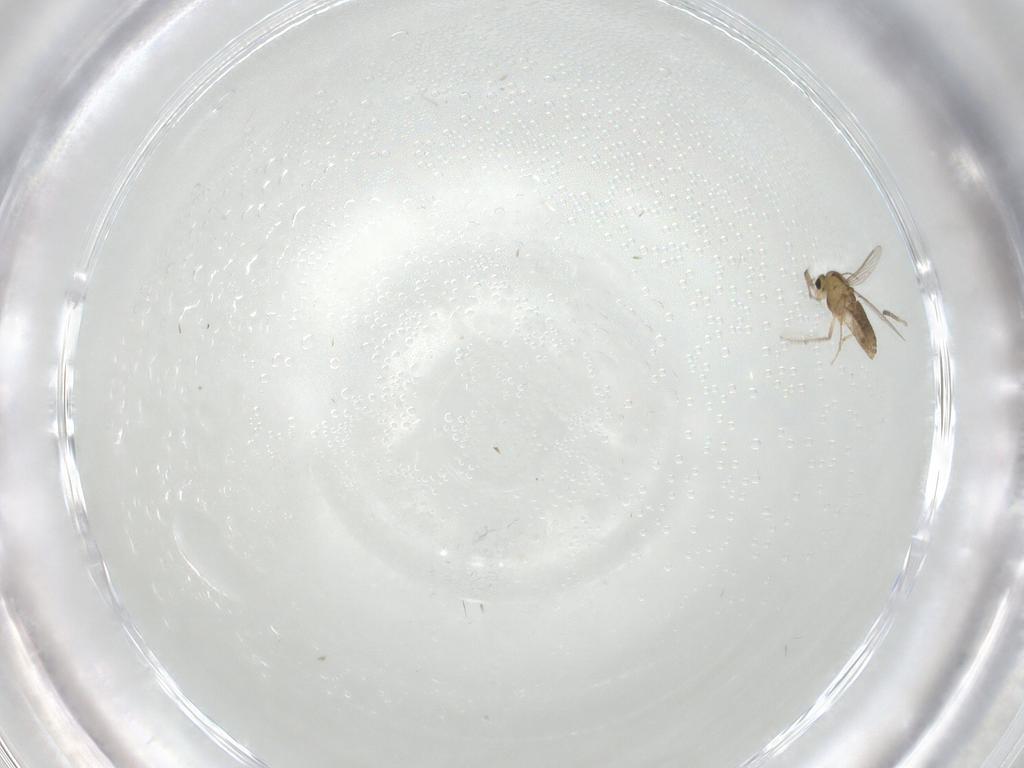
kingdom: Animalia
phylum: Arthropoda
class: Insecta
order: Diptera
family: Chironomidae
